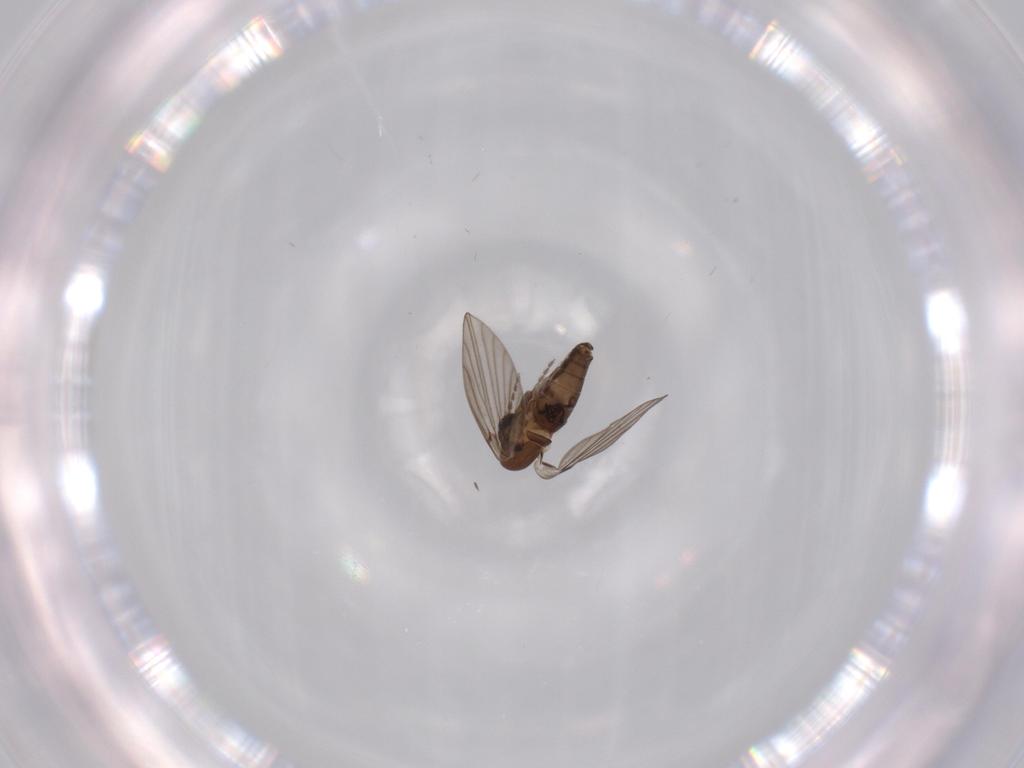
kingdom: Animalia
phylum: Arthropoda
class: Insecta
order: Diptera
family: Psychodidae
